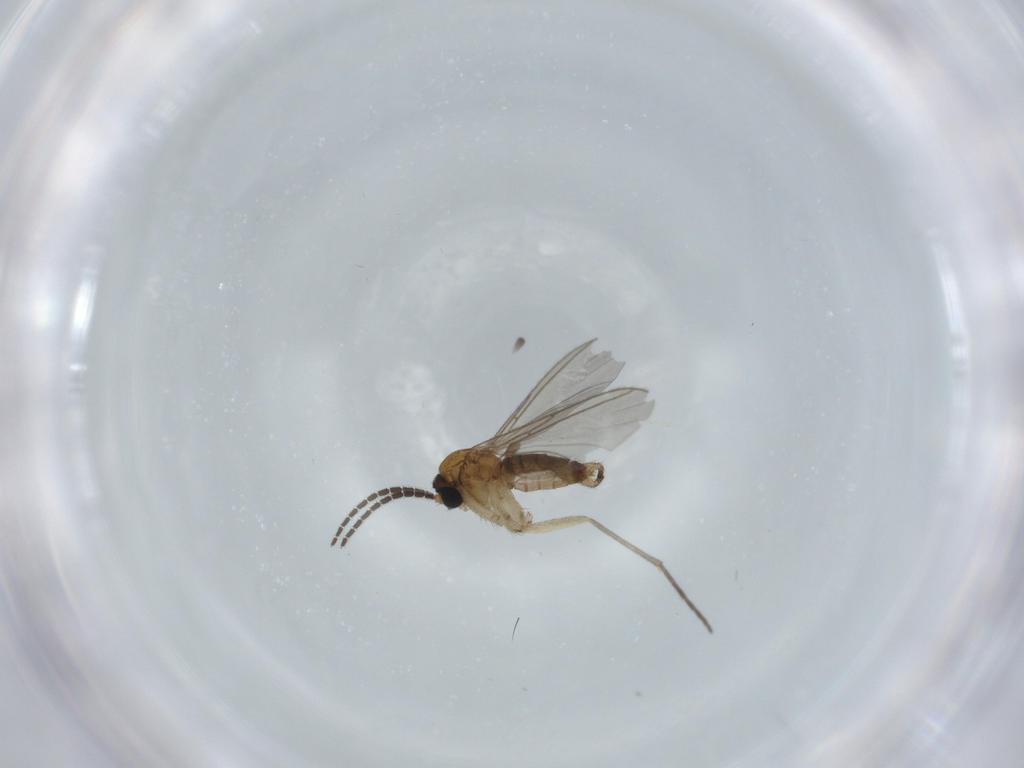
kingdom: Animalia
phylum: Arthropoda
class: Insecta
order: Diptera
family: Sciaridae
